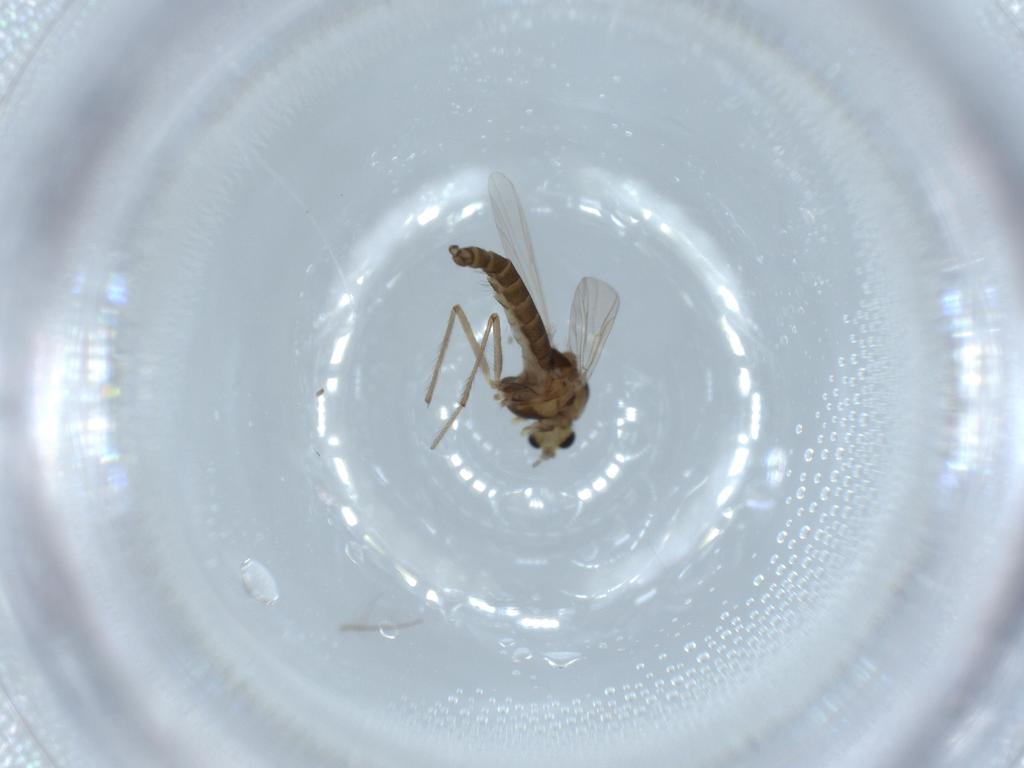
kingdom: Animalia
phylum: Arthropoda
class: Insecta
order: Diptera
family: Chironomidae
